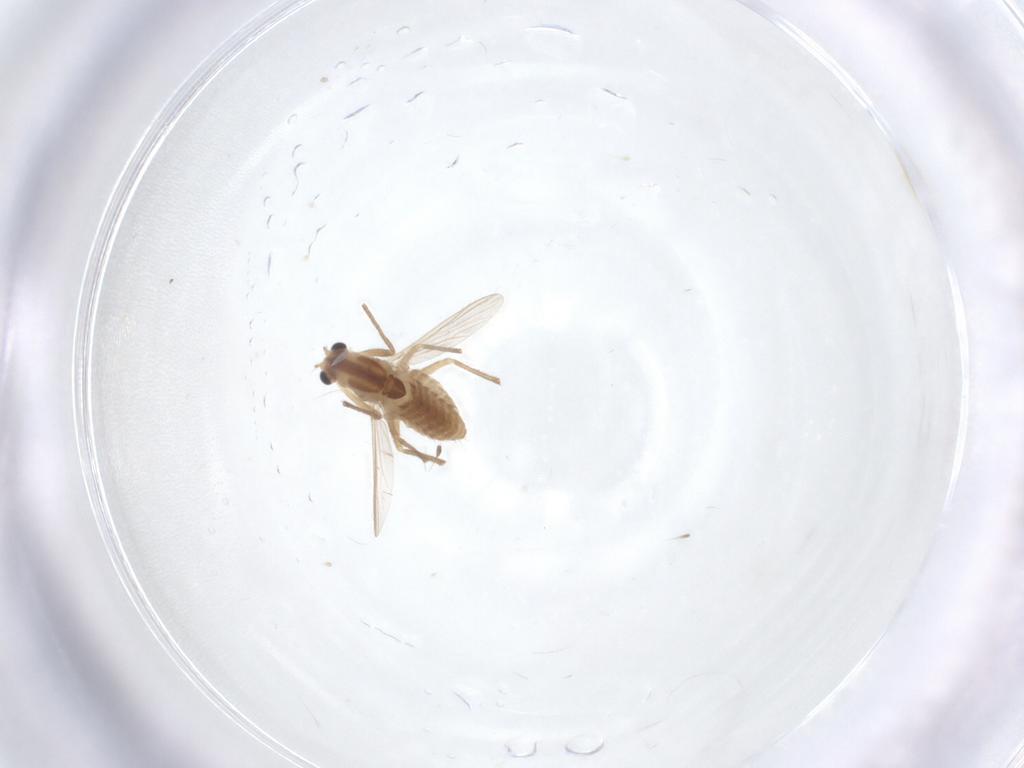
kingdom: Animalia
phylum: Arthropoda
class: Insecta
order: Diptera
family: Chironomidae
